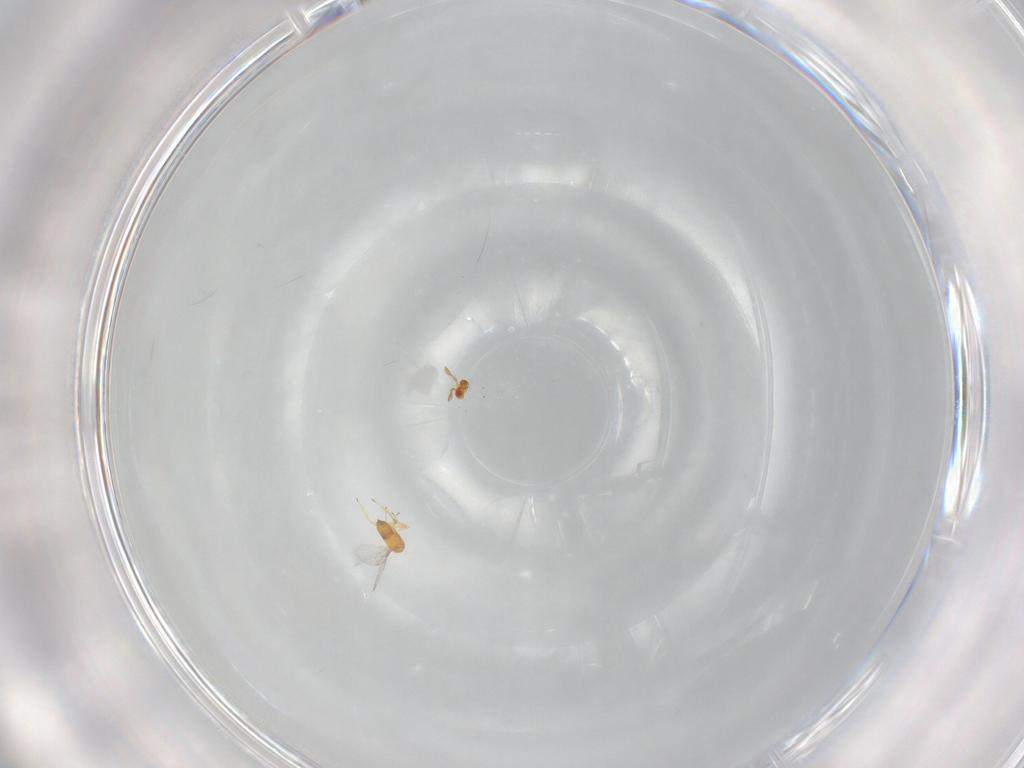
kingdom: Animalia
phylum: Arthropoda
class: Insecta
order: Hymenoptera
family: Trichogrammatidae
